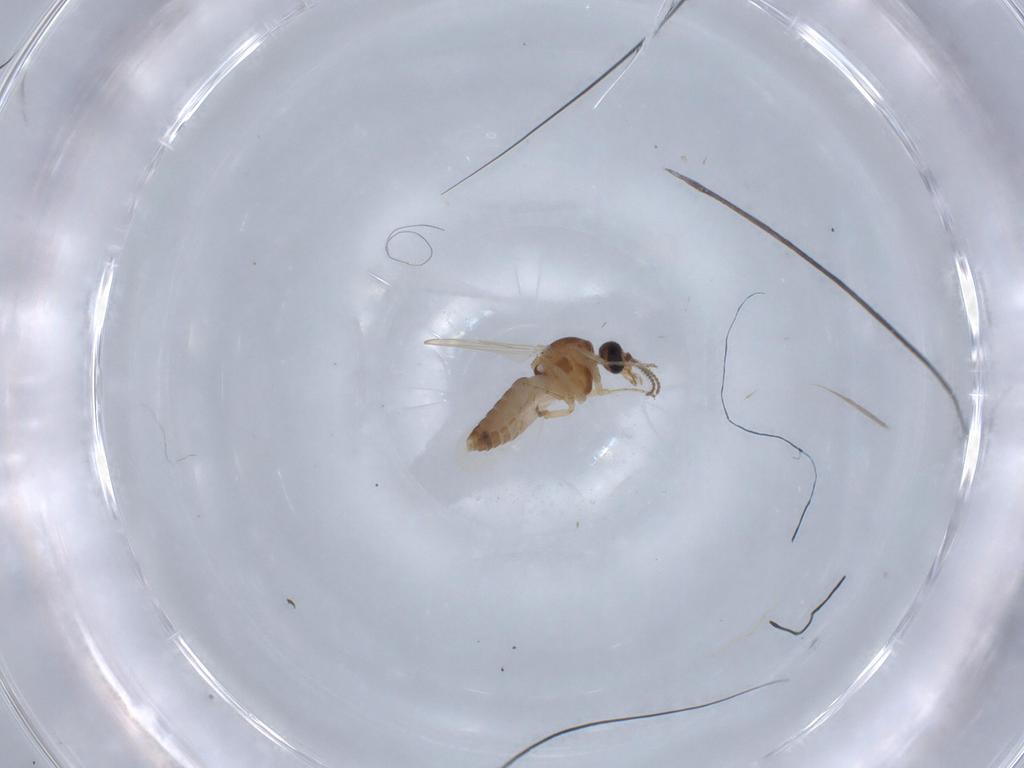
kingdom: Animalia
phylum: Arthropoda
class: Insecta
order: Diptera
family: Ceratopogonidae
